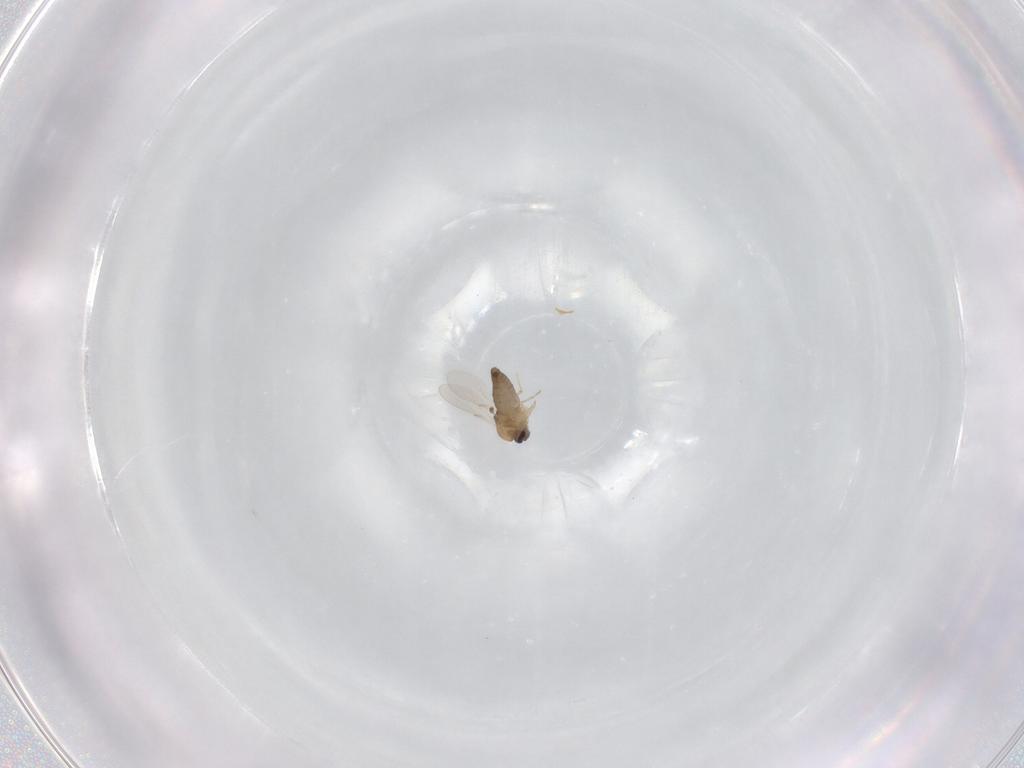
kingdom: Animalia
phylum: Arthropoda
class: Insecta
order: Diptera
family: Ceratopogonidae
